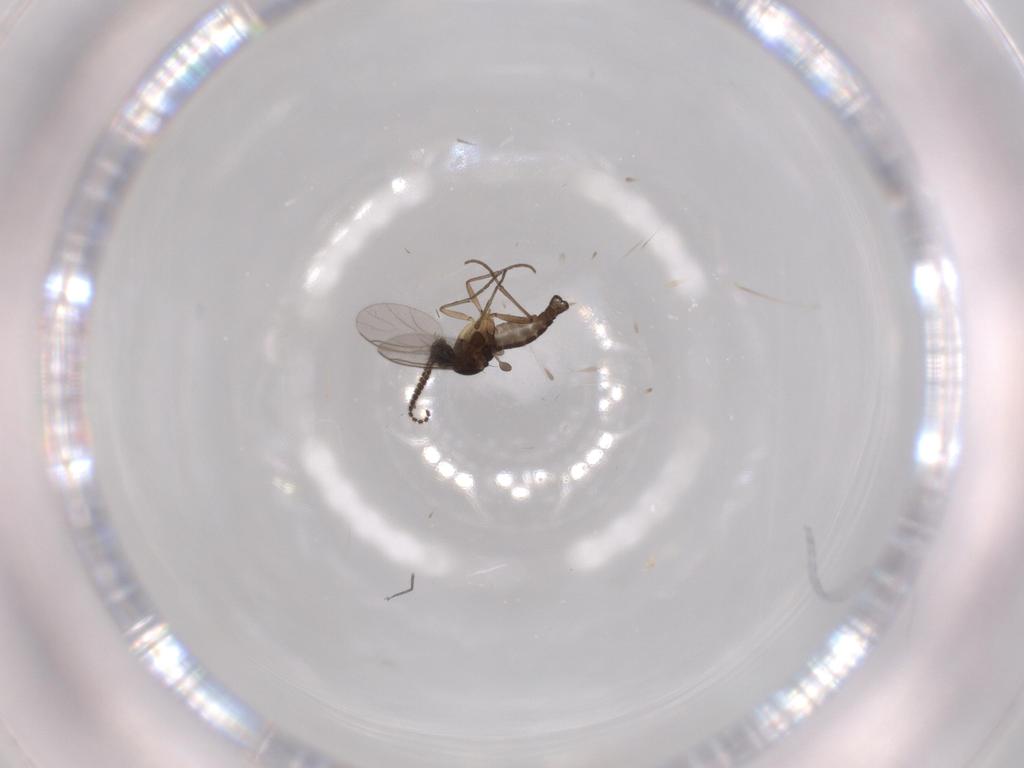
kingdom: Animalia
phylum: Arthropoda
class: Insecta
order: Diptera
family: Sciaridae
